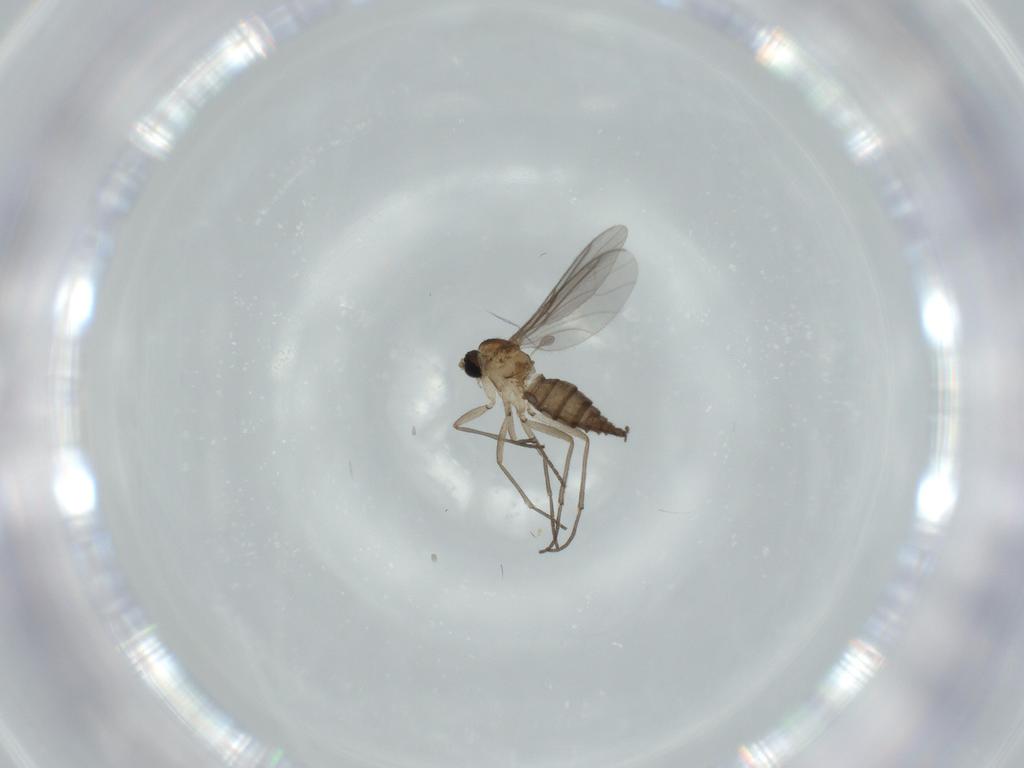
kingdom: Animalia
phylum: Arthropoda
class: Insecta
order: Diptera
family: Sciaridae
